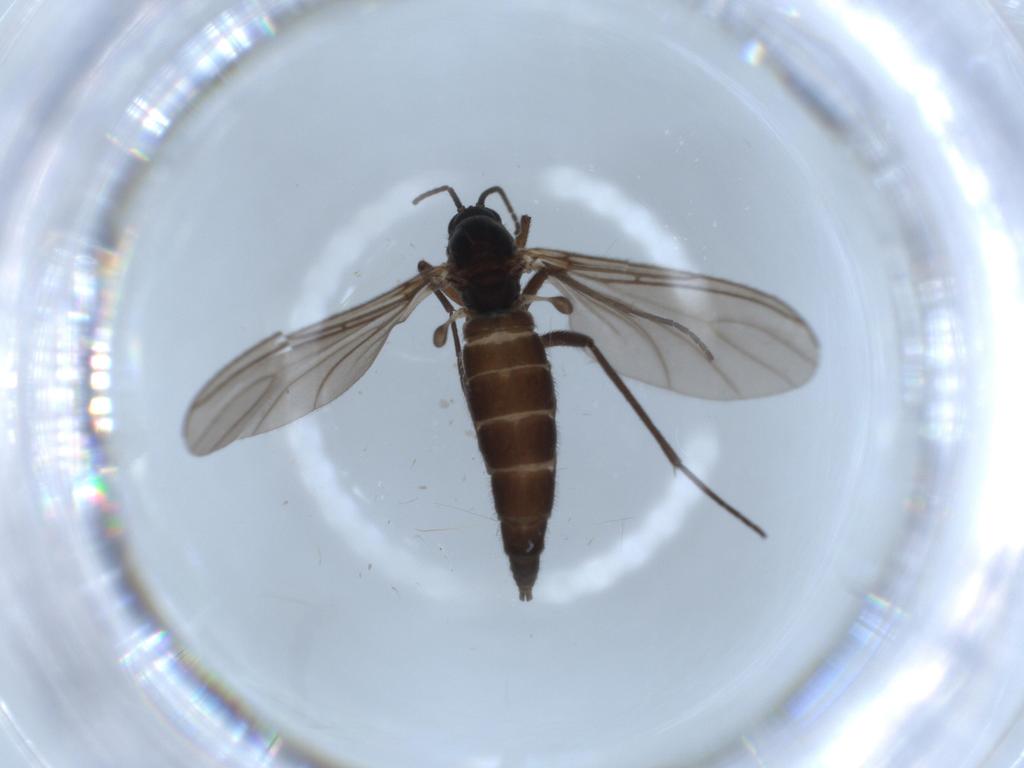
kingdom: Animalia
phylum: Arthropoda
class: Insecta
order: Diptera
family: Sciaridae
